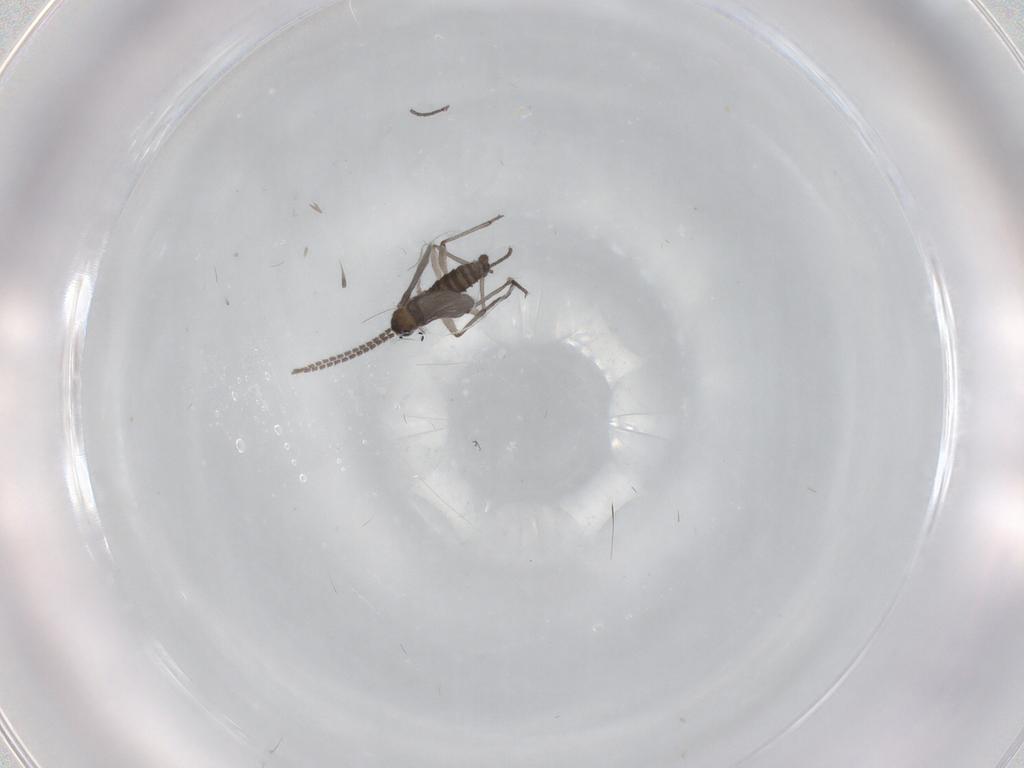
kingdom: Animalia
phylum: Arthropoda
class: Insecta
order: Diptera
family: Sciaridae
